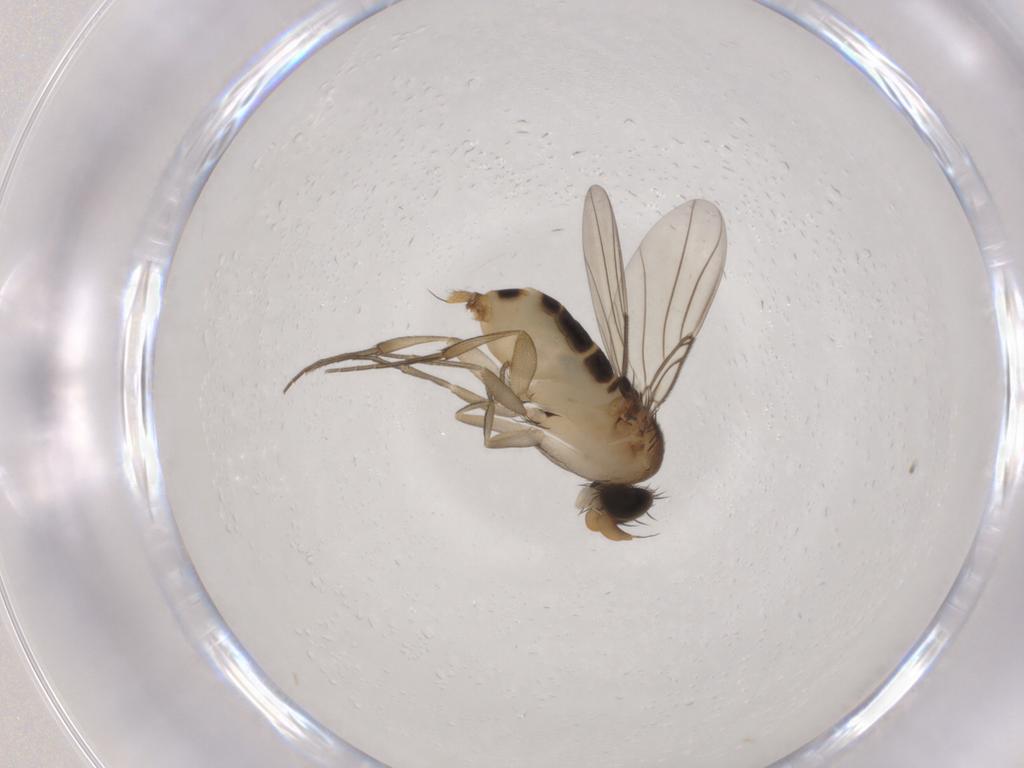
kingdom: Animalia
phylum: Arthropoda
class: Insecta
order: Diptera
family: Phoridae
